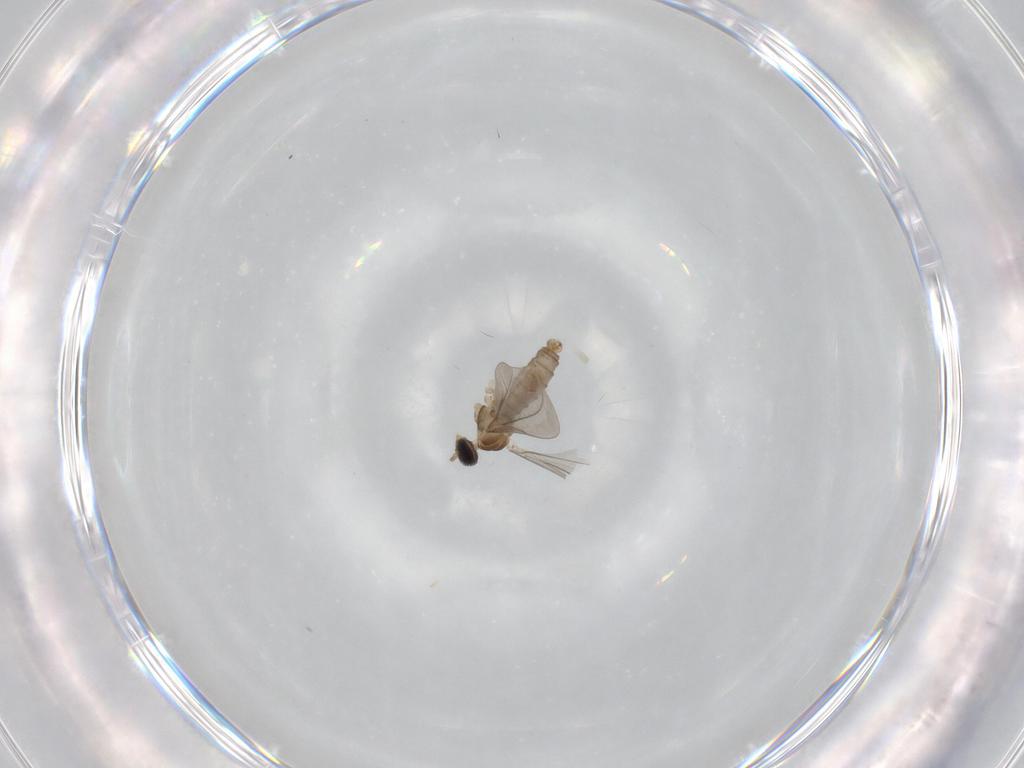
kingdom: Animalia
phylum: Arthropoda
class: Insecta
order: Diptera
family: Cecidomyiidae
